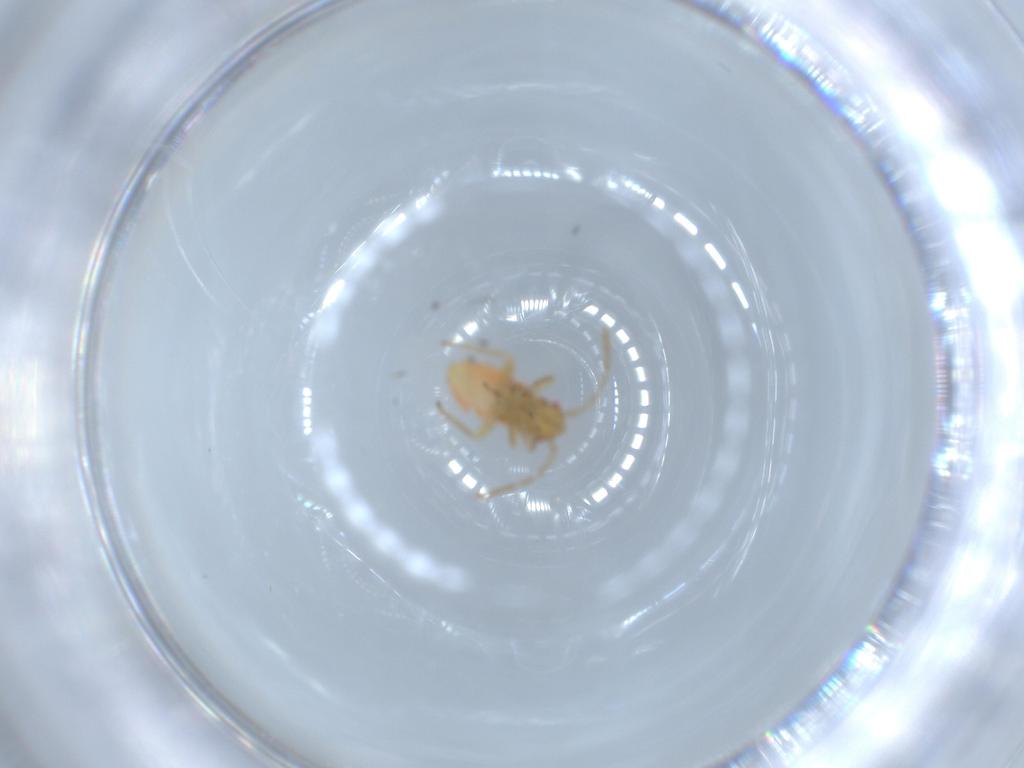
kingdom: Animalia
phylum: Arthropoda
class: Insecta
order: Hemiptera
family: Miridae
